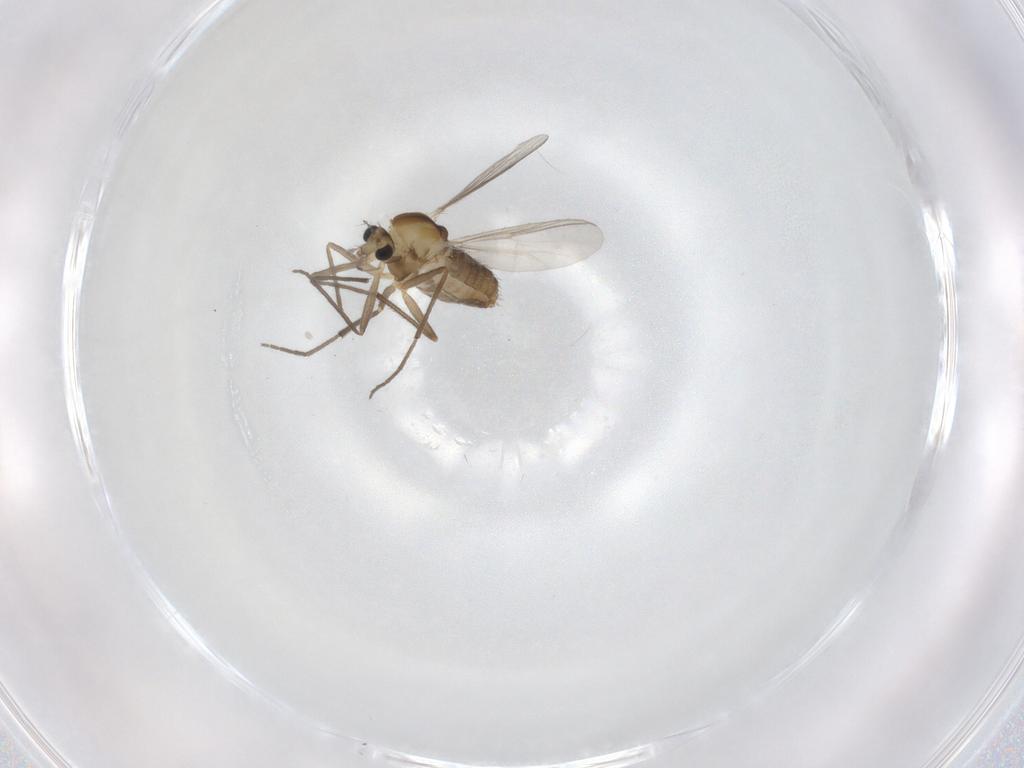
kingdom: Animalia
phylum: Arthropoda
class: Insecta
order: Diptera
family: Chironomidae
